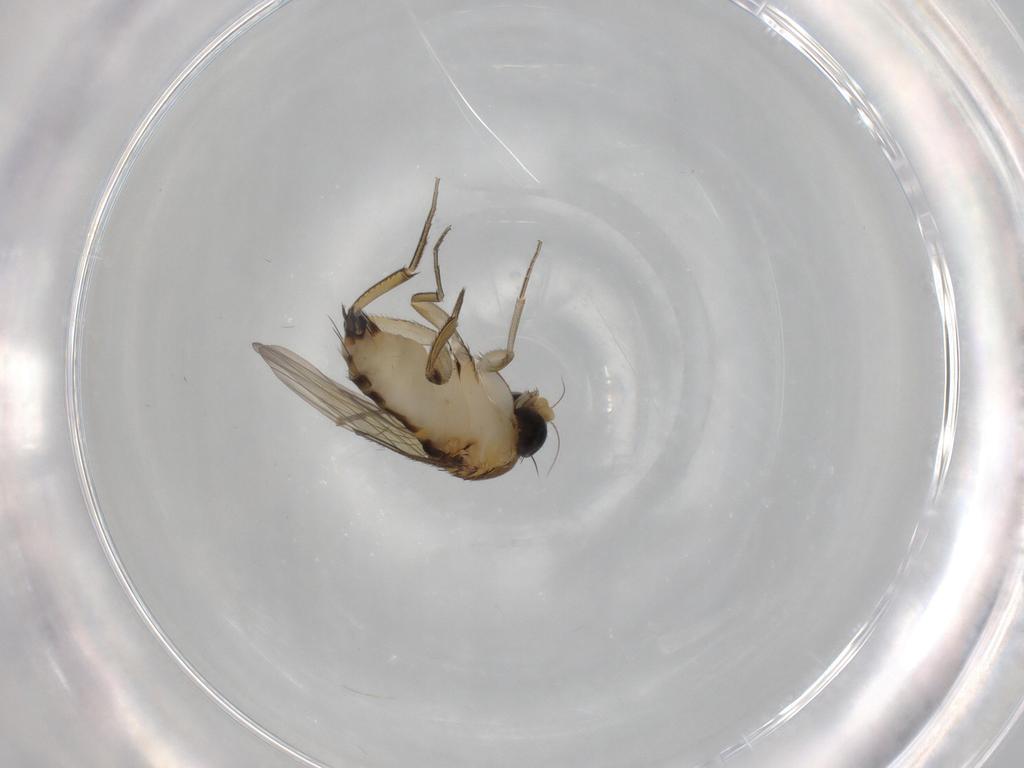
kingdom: Animalia
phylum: Arthropoda
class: Insecta
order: Diptera
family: Phoridae
